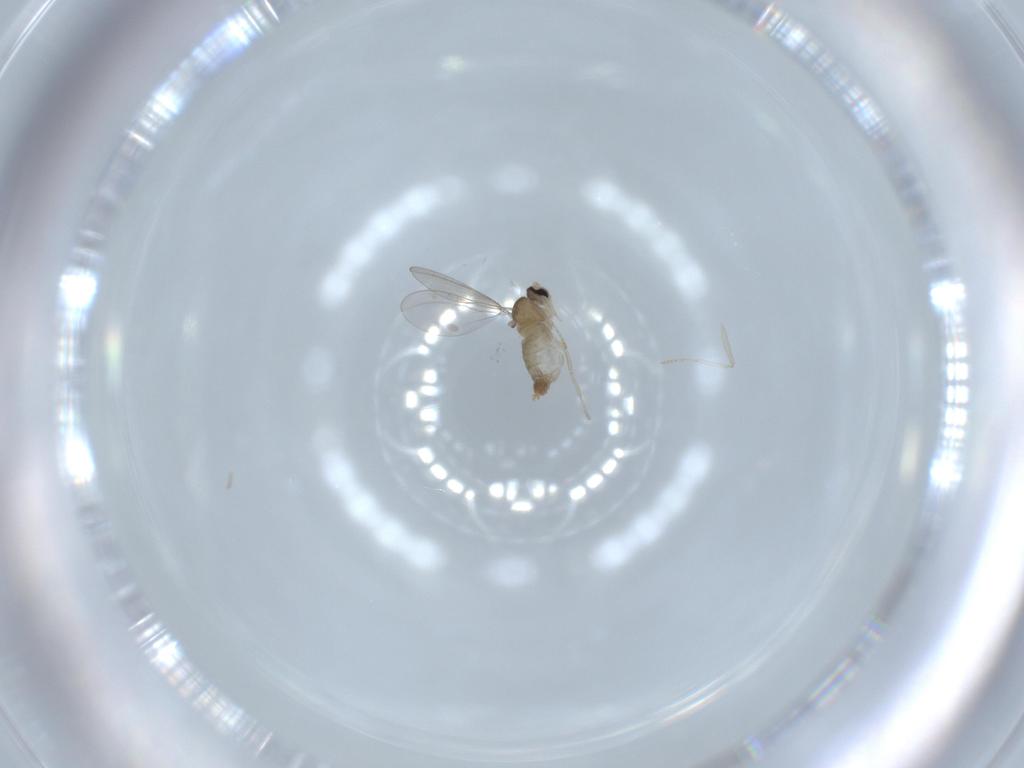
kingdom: Animalia
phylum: Arthropoda
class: Insecta
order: Diptera
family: Cecidomyiidae
